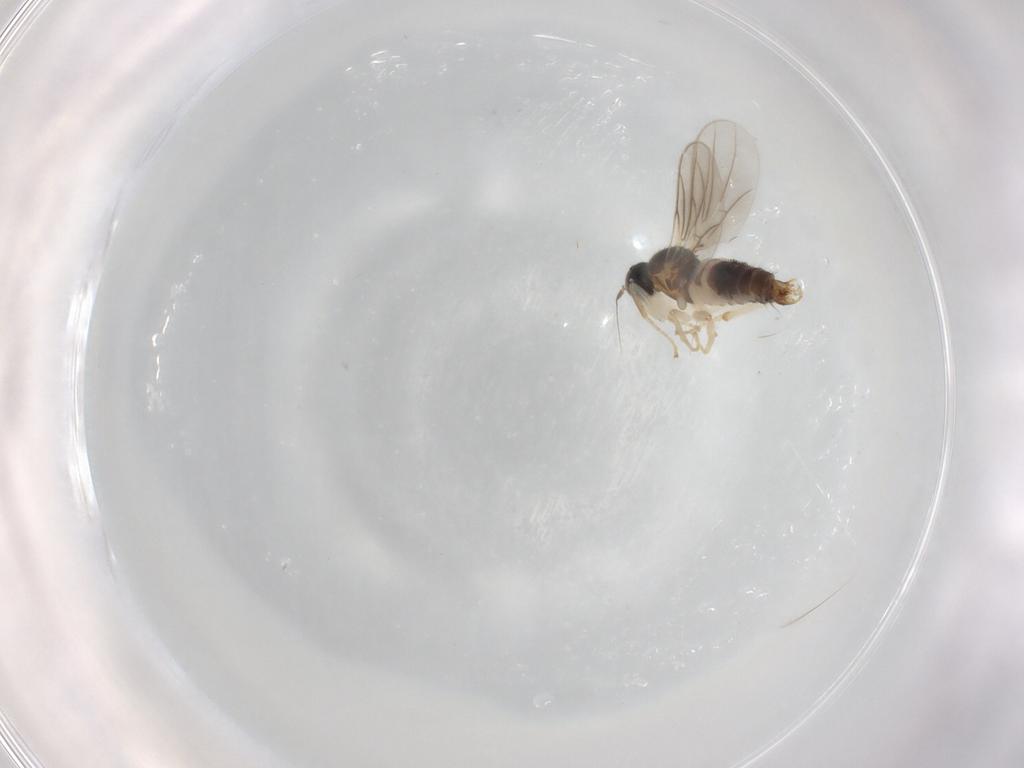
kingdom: Animalia
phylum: Arthropoda
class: Insecta
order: Diptera
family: Hybotidae
